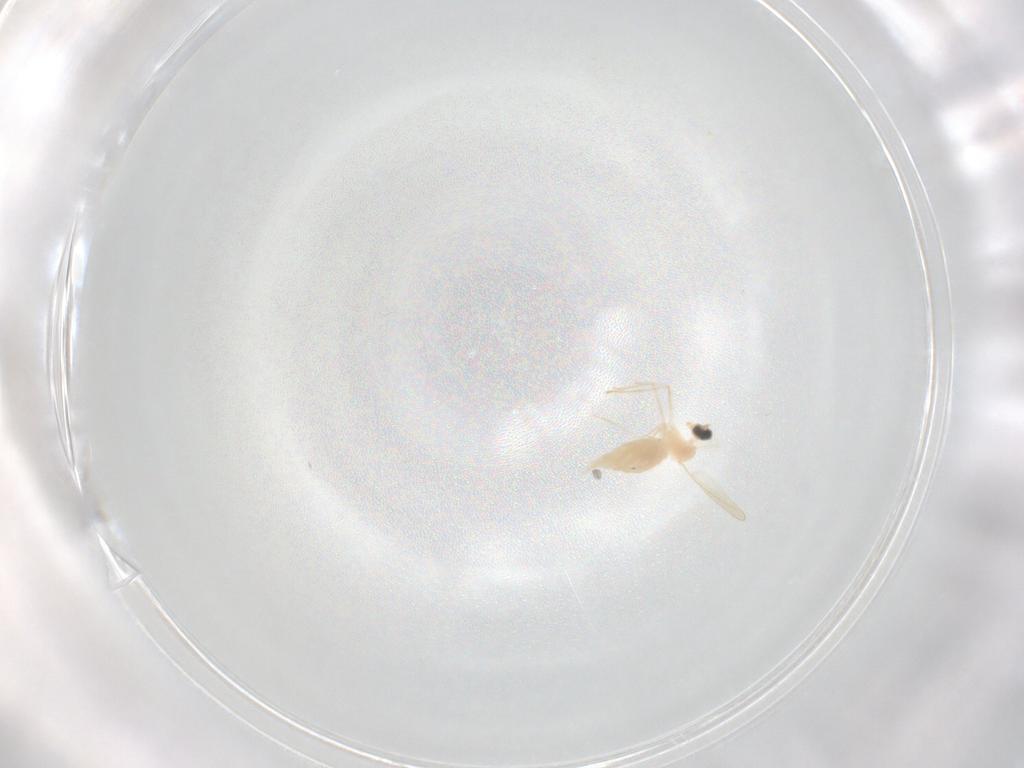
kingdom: Animalia
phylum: Arthropoda
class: Insecta
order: Diptera
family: Cecidomyiidae
